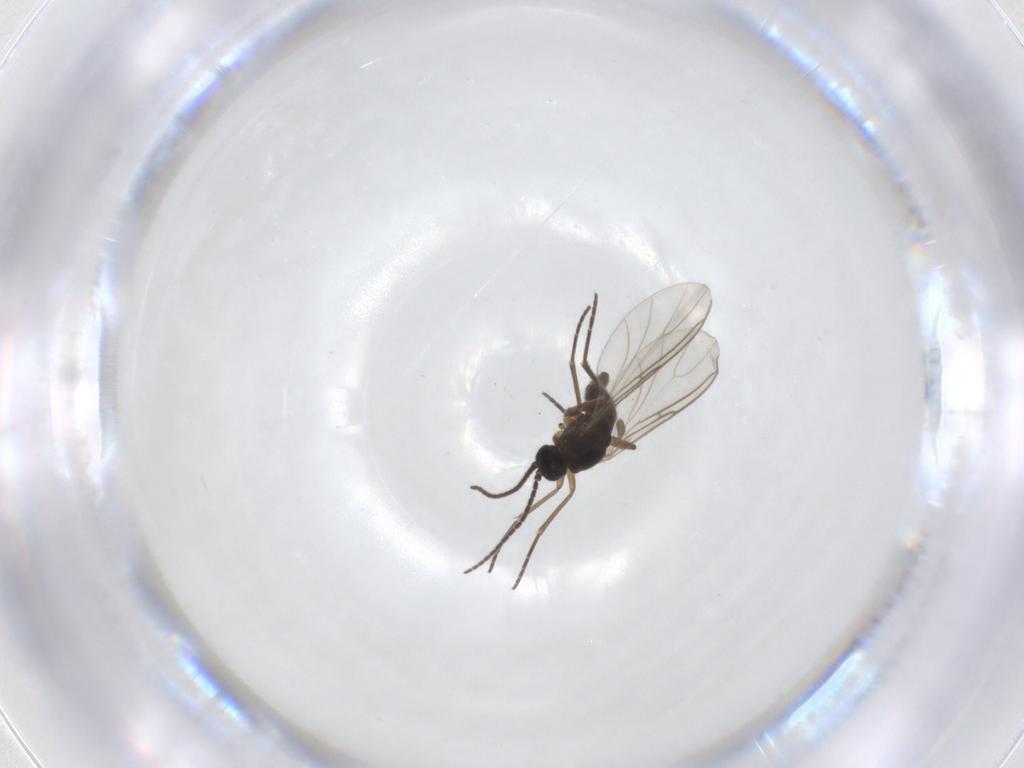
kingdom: Animalia
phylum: Arthropoda
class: Insecta
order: Diptera
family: Sciaridae
